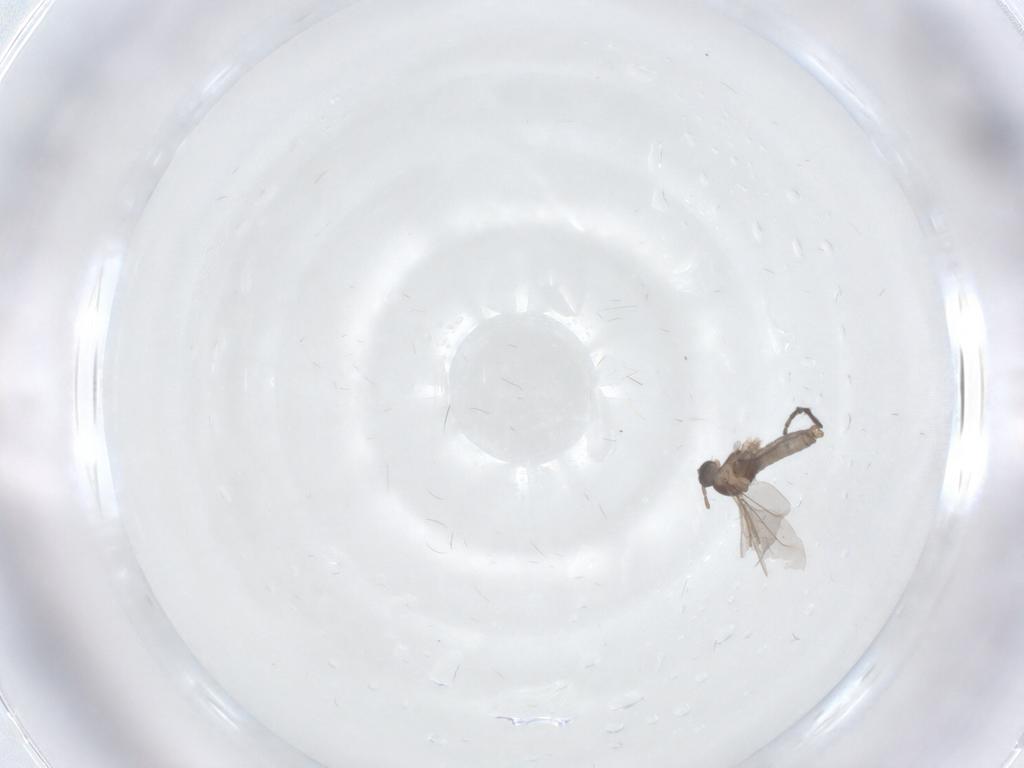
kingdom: Animalia
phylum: Arthropoda
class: Insecta
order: Diptera
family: Cecidomyiidae
